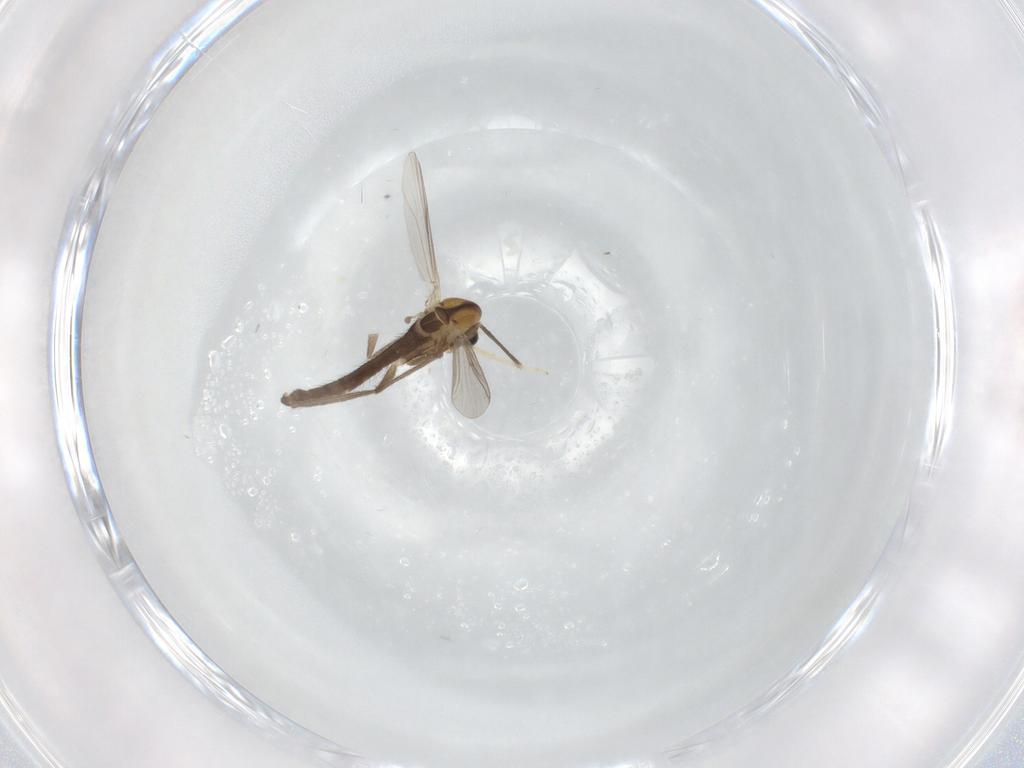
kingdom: Animalia
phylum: Arthropoda
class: Insecta
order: Diptera
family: Chironomidae
